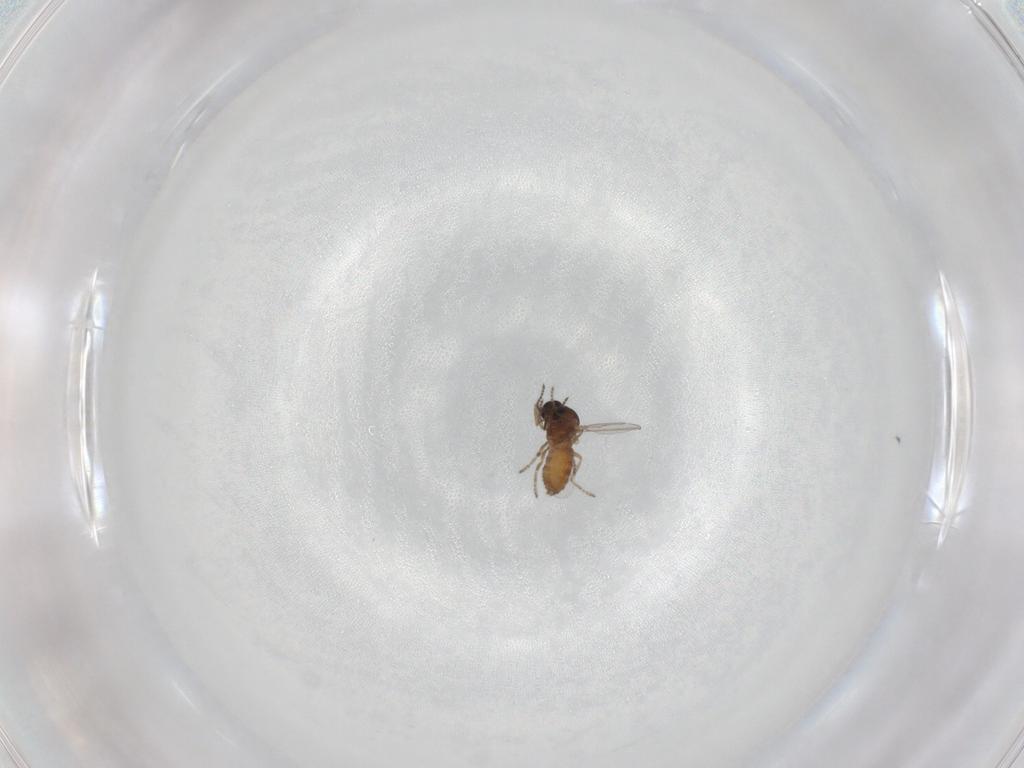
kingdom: Animalia
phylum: Arthropoda
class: Insecta
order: Diptera
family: Ceratopogonidae
